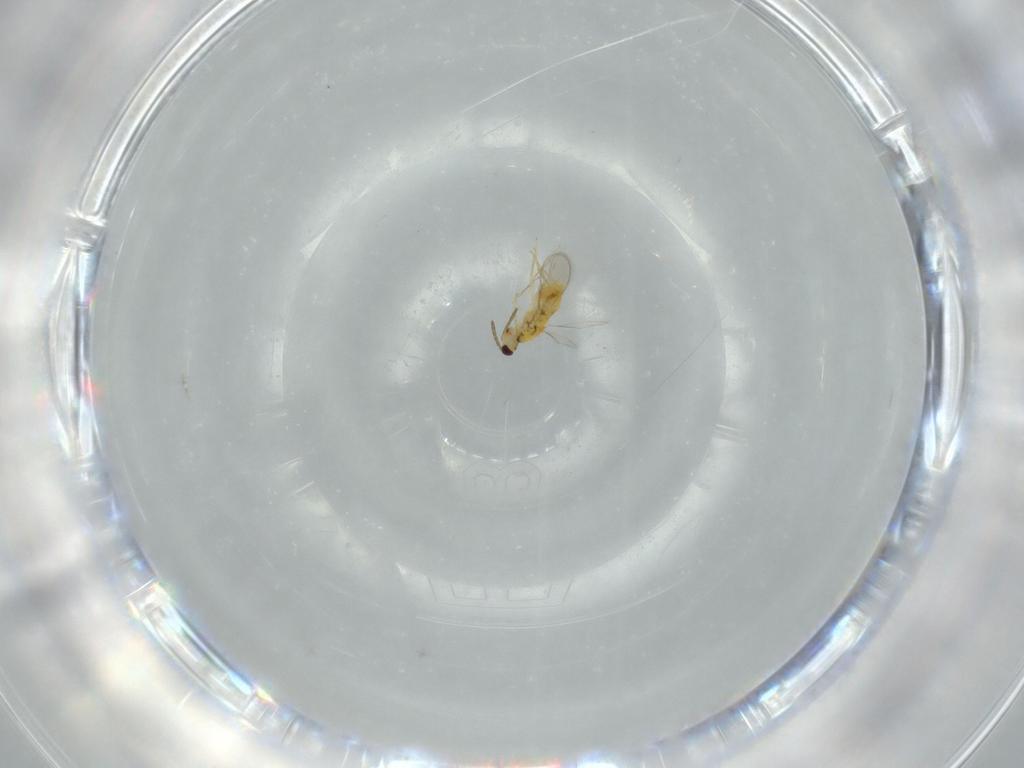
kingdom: Animalia
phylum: Arthropoda
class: Insecta
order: Hymenoptera
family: Aphelinidae
